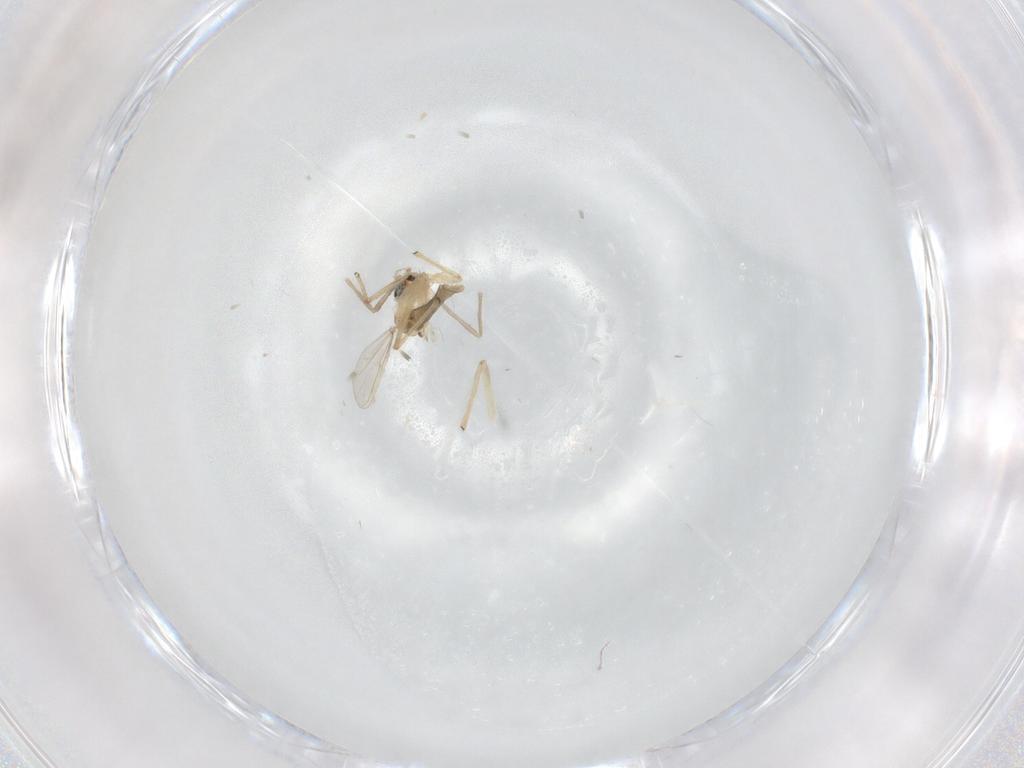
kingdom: Animalia
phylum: Arthropoda
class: Insecta
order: Diptera
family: Chironomidae
